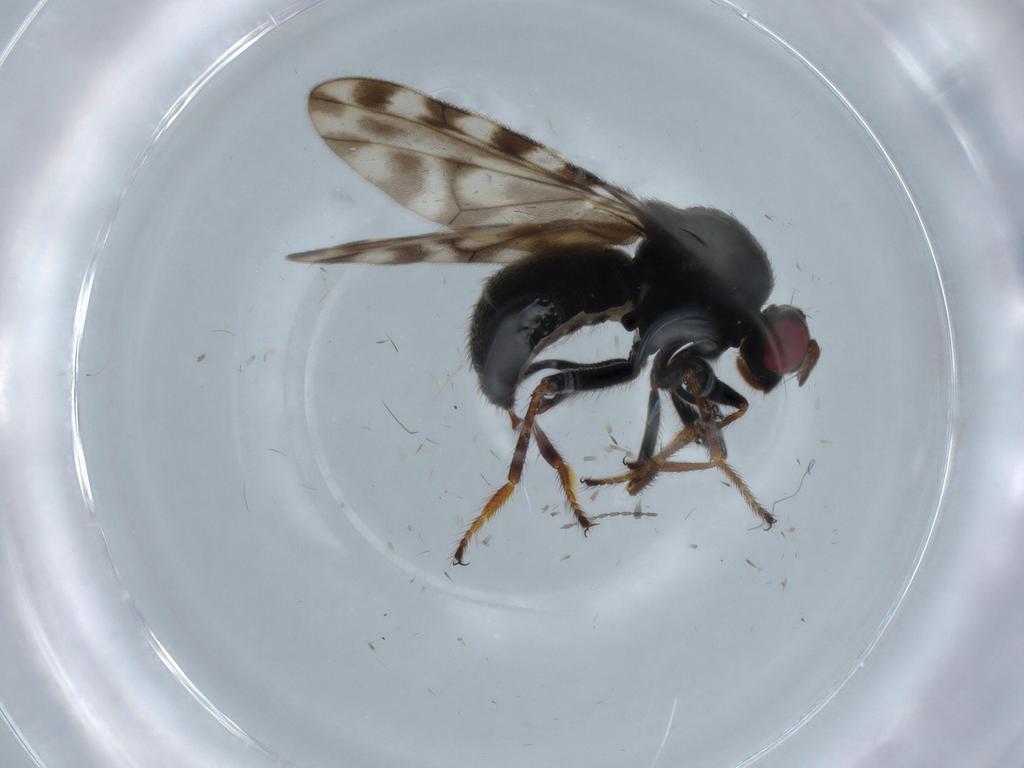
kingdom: Animalia
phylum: Arthropoda
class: Insecta
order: Diptera
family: Ephydridae
